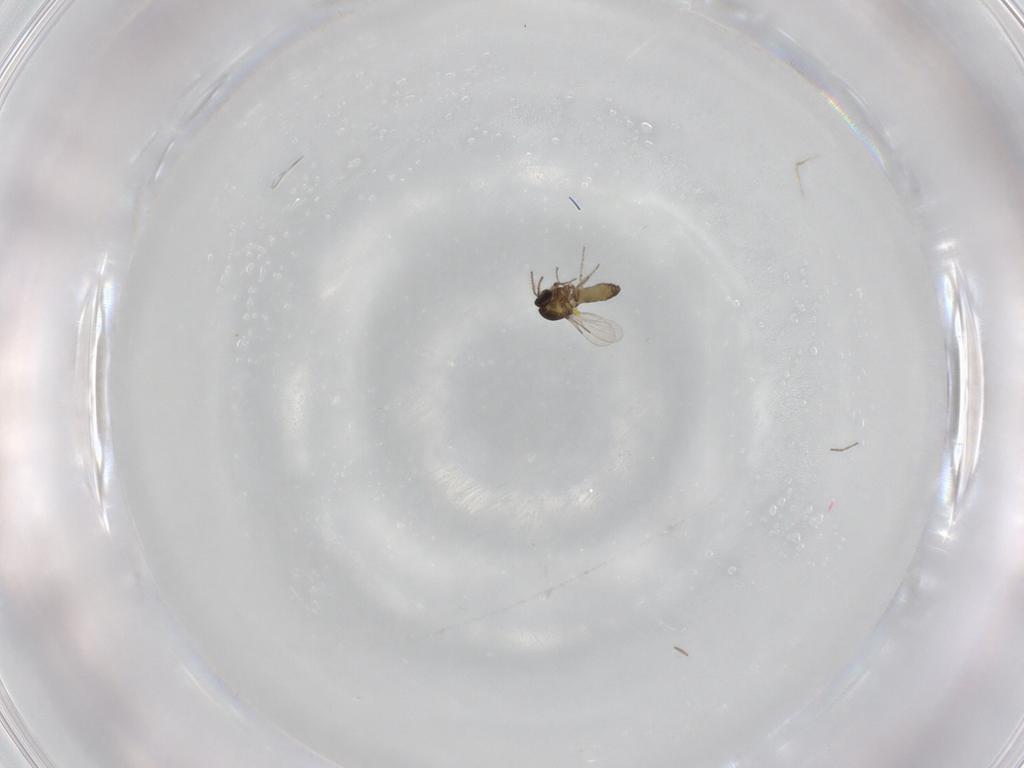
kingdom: Animalia
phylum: Arthropoda
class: Insecta
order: Diptera
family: Ceratopogonidae
